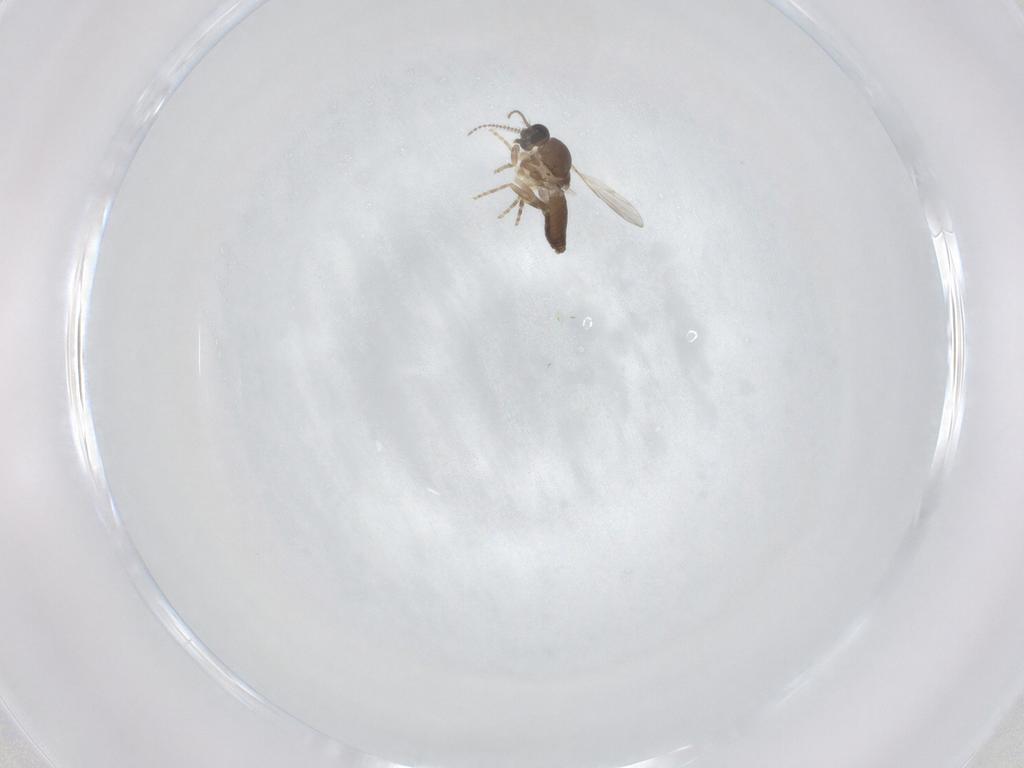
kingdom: Animalia
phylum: Arthropoda
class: Insecta
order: Diptera
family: Ceratopogonidae
